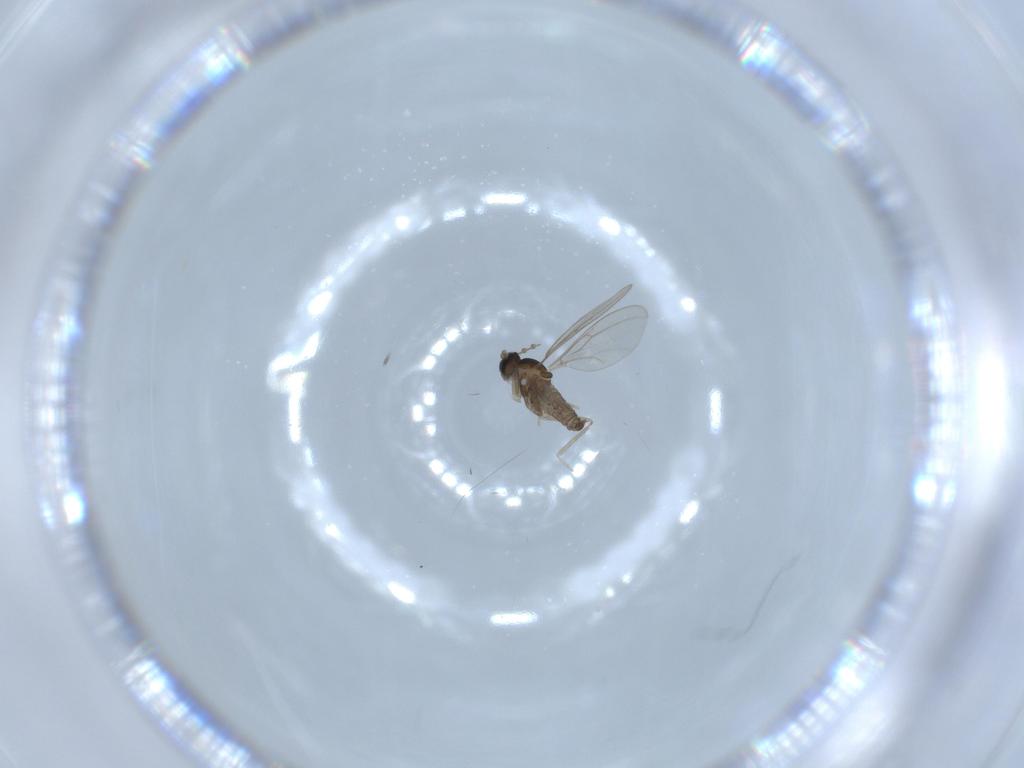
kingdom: Animalia
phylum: Arthropoda
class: Insecta
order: Diptera
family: Cecidomyiidae
